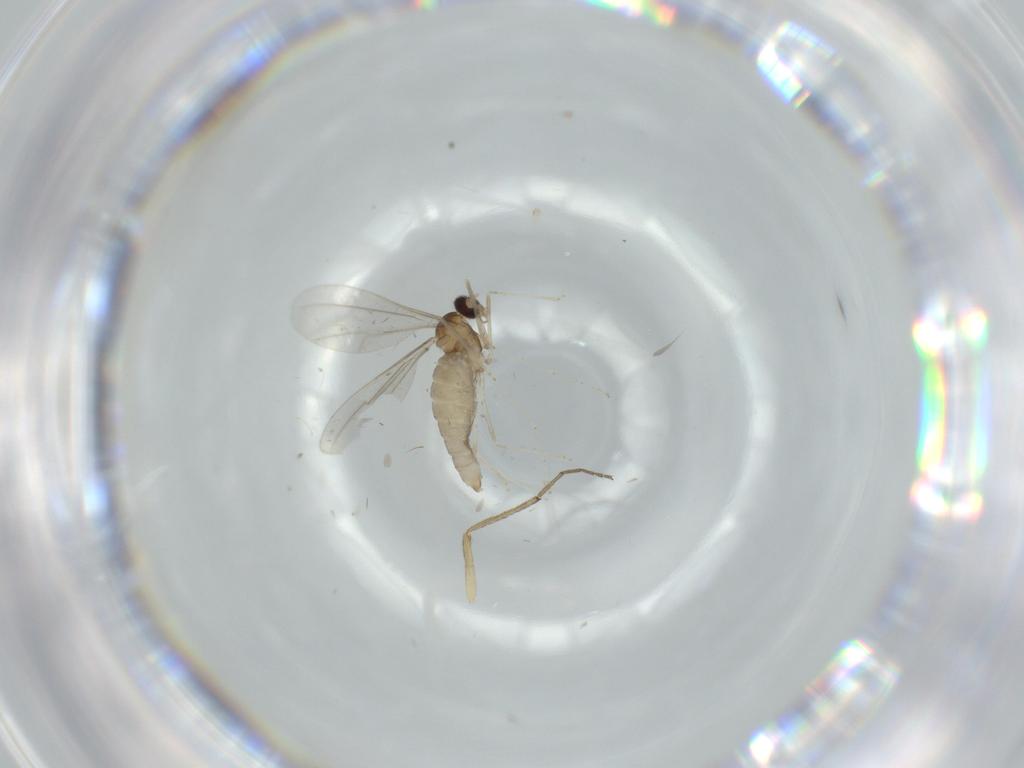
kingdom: Animalia
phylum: Arthropoda
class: Insecta
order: Diptera
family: Cecidomyiidae
